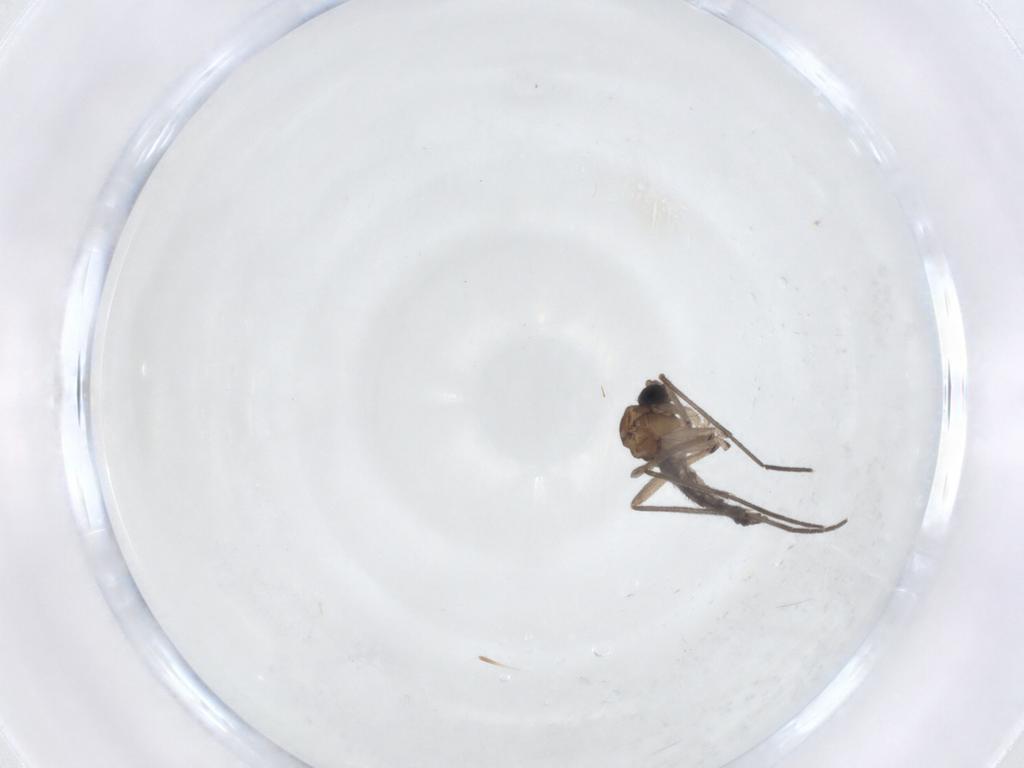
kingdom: Animalia
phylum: Arthropoda
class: Insecta
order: Diptera
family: Sciaridae
